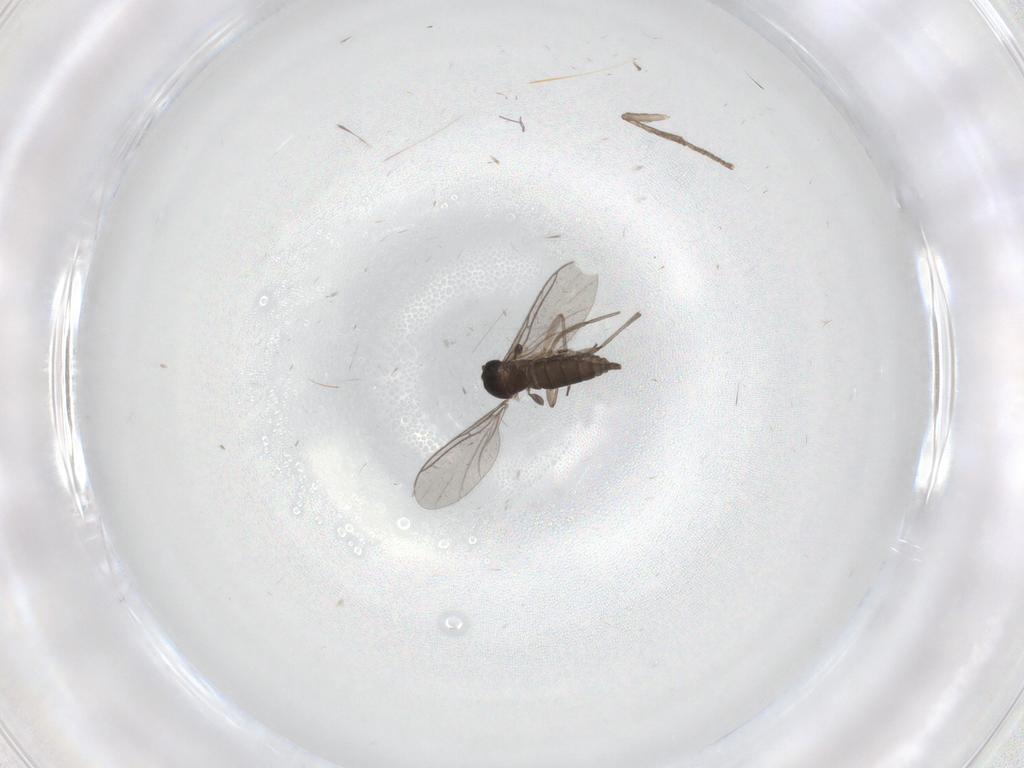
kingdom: Animalia
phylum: Arthropoda
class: Insecta
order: Diptera
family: Sciaridae
